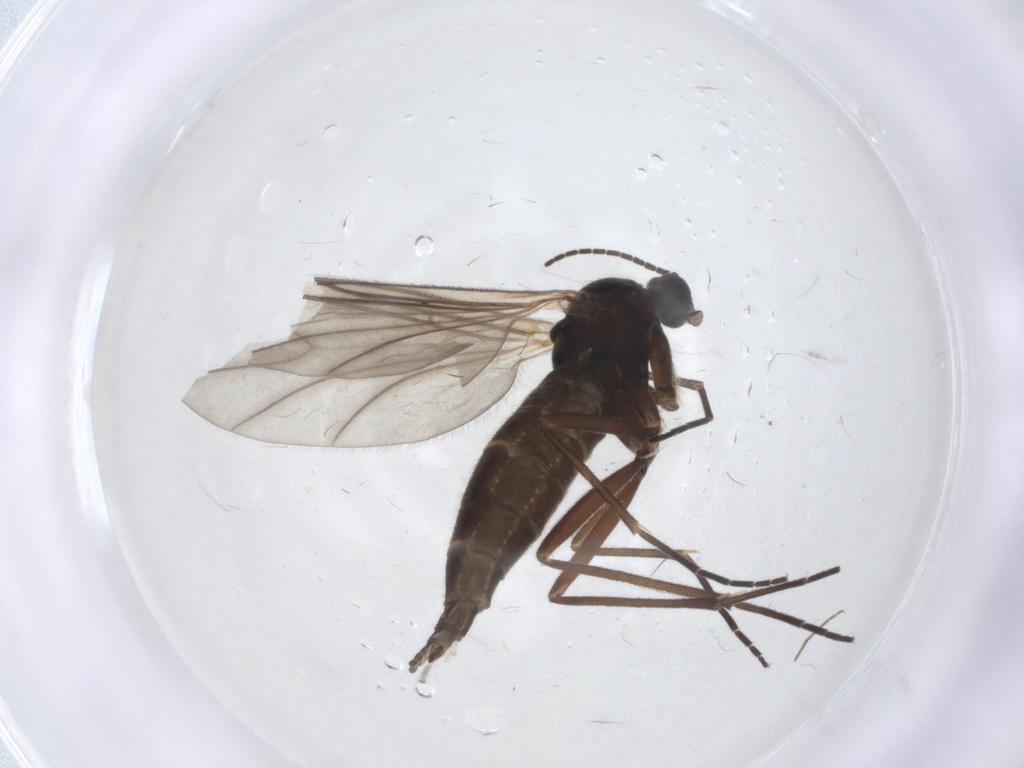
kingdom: Animalia
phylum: Arthropoda
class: Insecta
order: Diptera
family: Sciaridae
